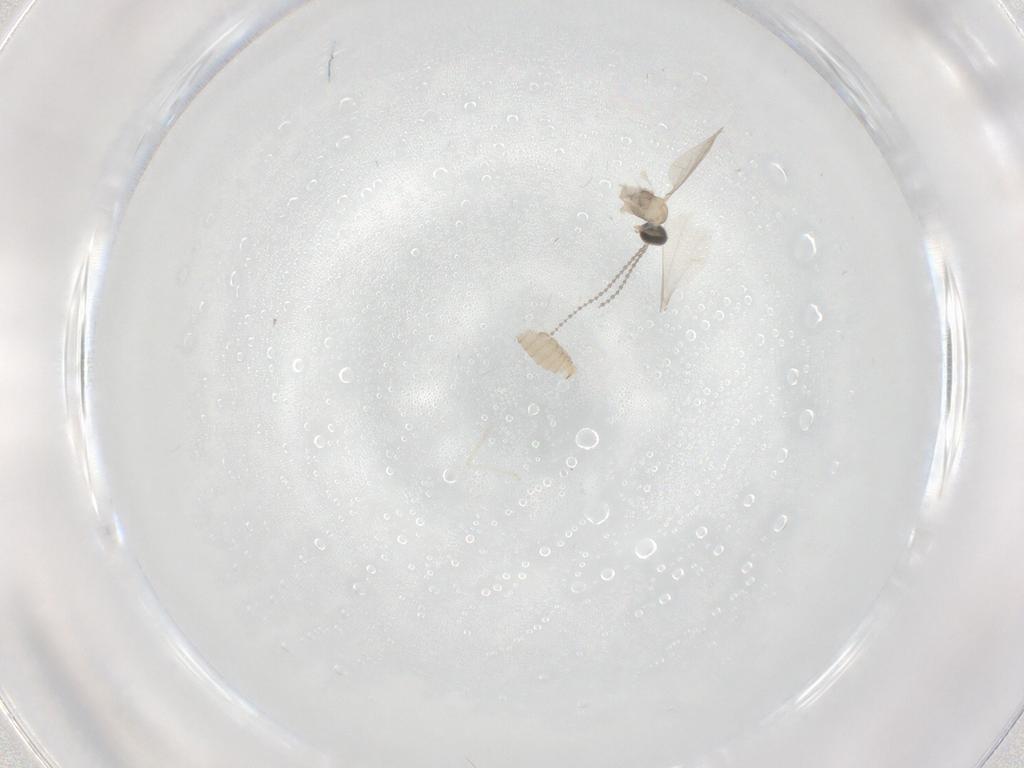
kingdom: Animalia
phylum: Arthropoda
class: Insecta
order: Diptera
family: Cecidomyiidae
